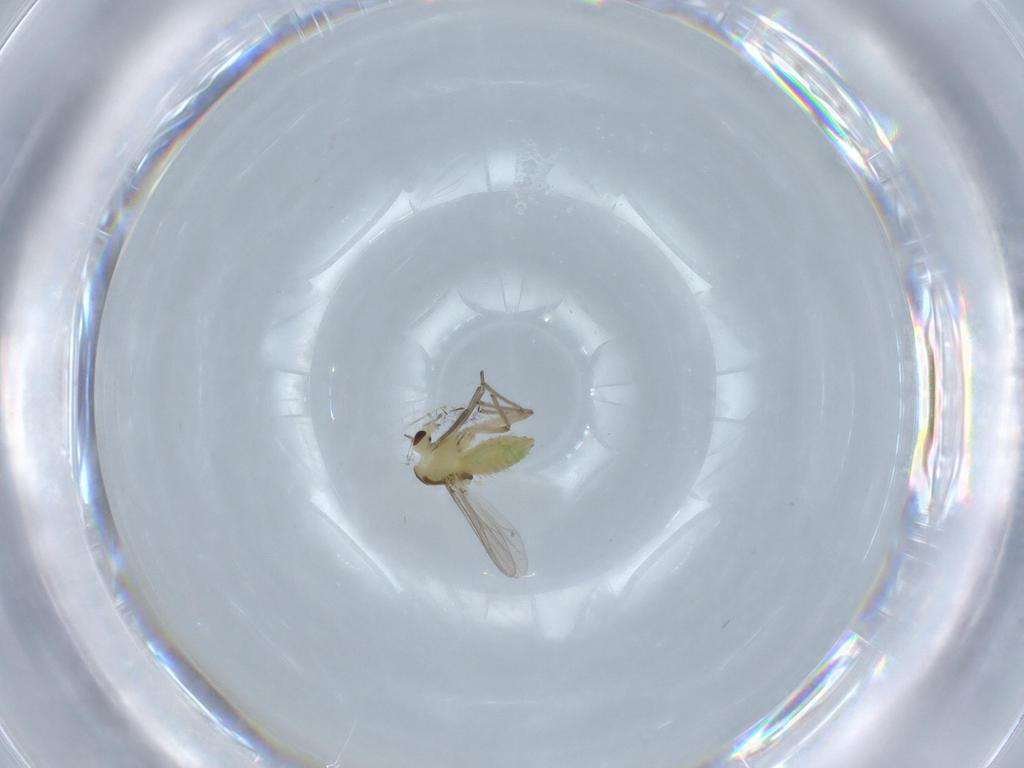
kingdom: Animalia
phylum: Arthropoda
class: Insecta
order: Diptera
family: Chironomidae
